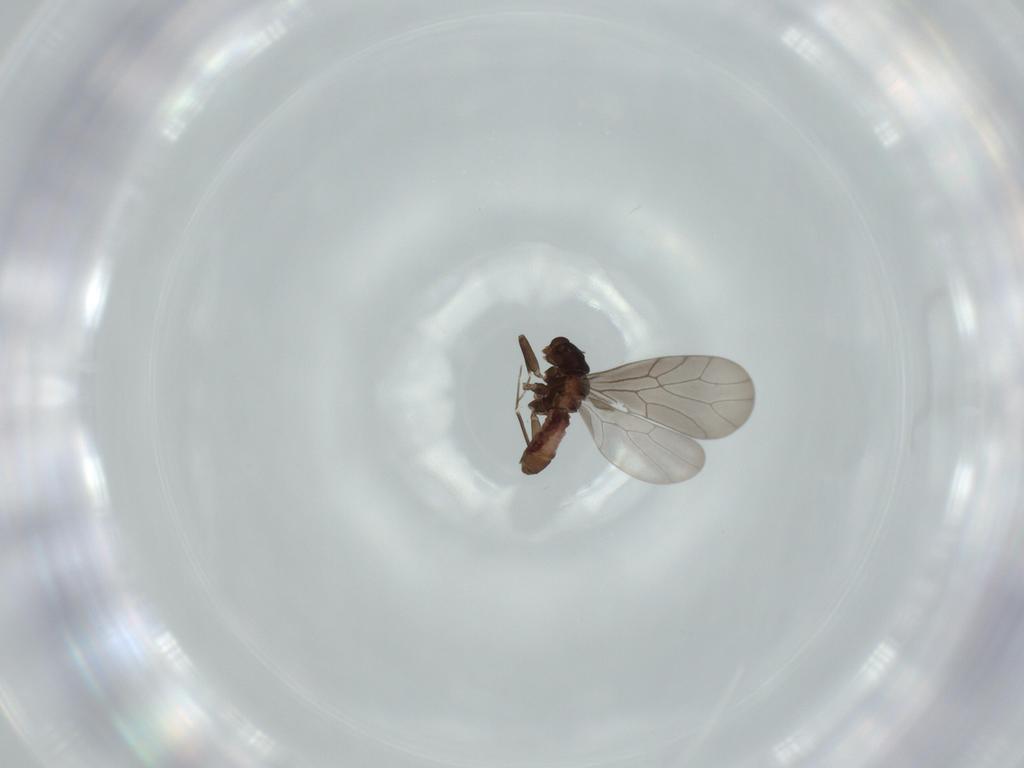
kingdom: Animalia
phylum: Arthropoda
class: Insecta
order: Psocodea
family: Lepidopsocidae
